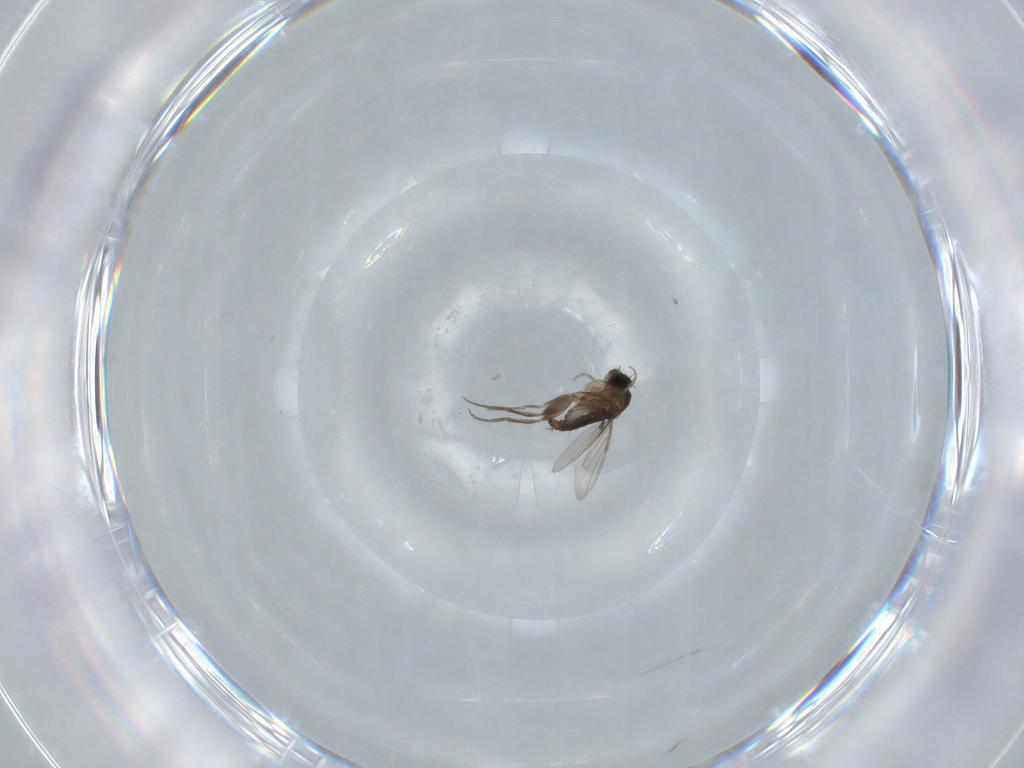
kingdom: Animalia
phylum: Arthropoda
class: Insecta
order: Diptera
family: Phoridae
